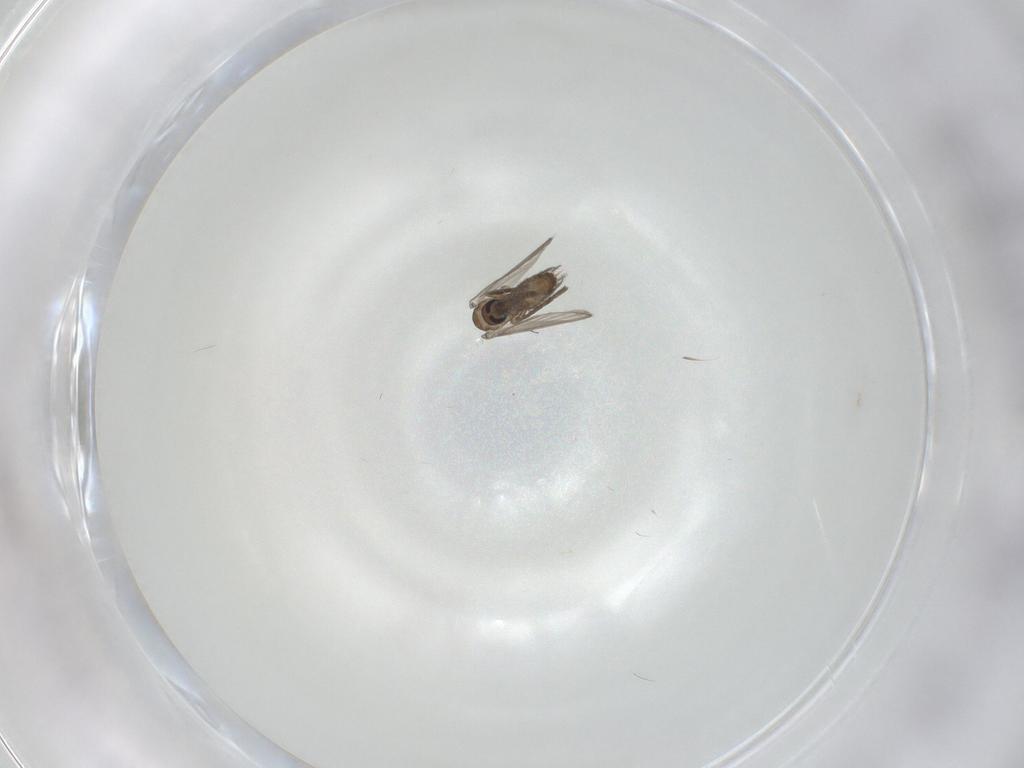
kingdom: Animalia
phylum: Arthropoda
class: Insecta
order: Diptera
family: Psychodidae
